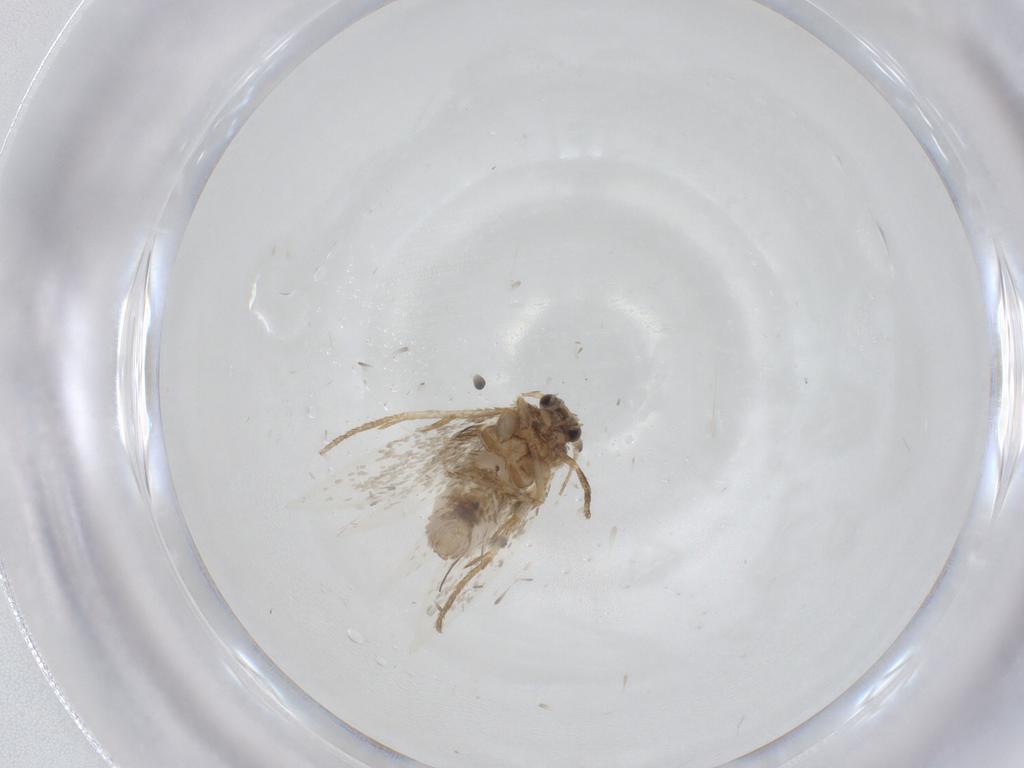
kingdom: Animalia
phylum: Arthropoda
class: Insecta
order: Lepidoptera
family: Nepticulidae
